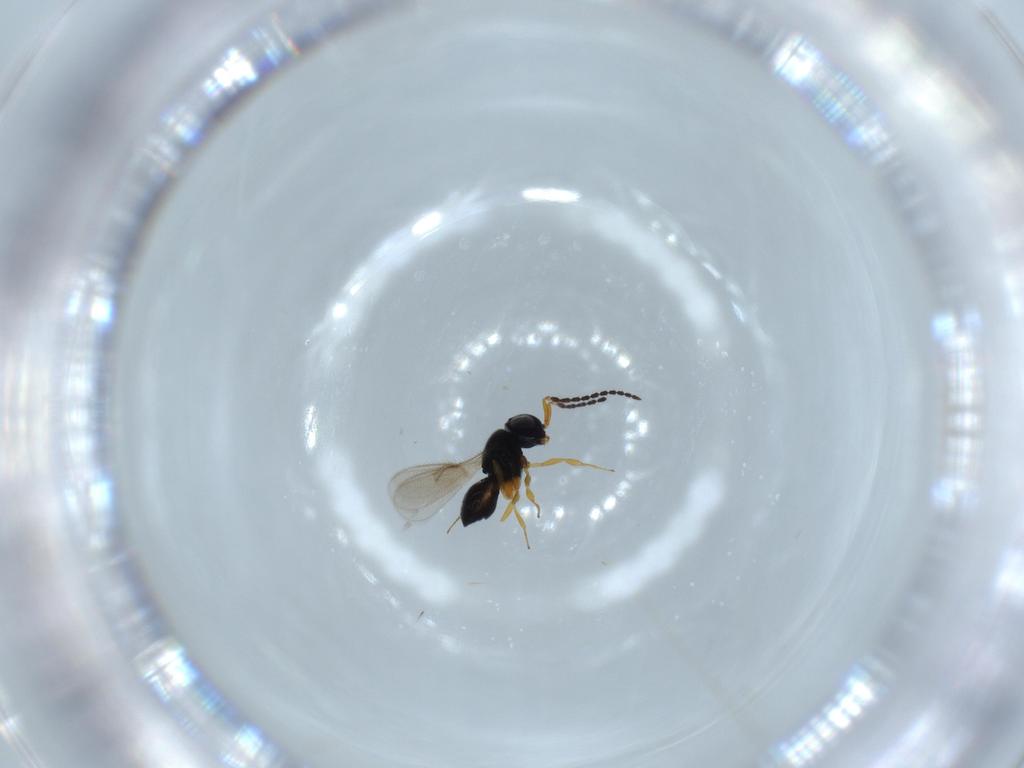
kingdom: Animalia
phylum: Arthropoda
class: Insecta
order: Hymenoptera
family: Scelionidae
